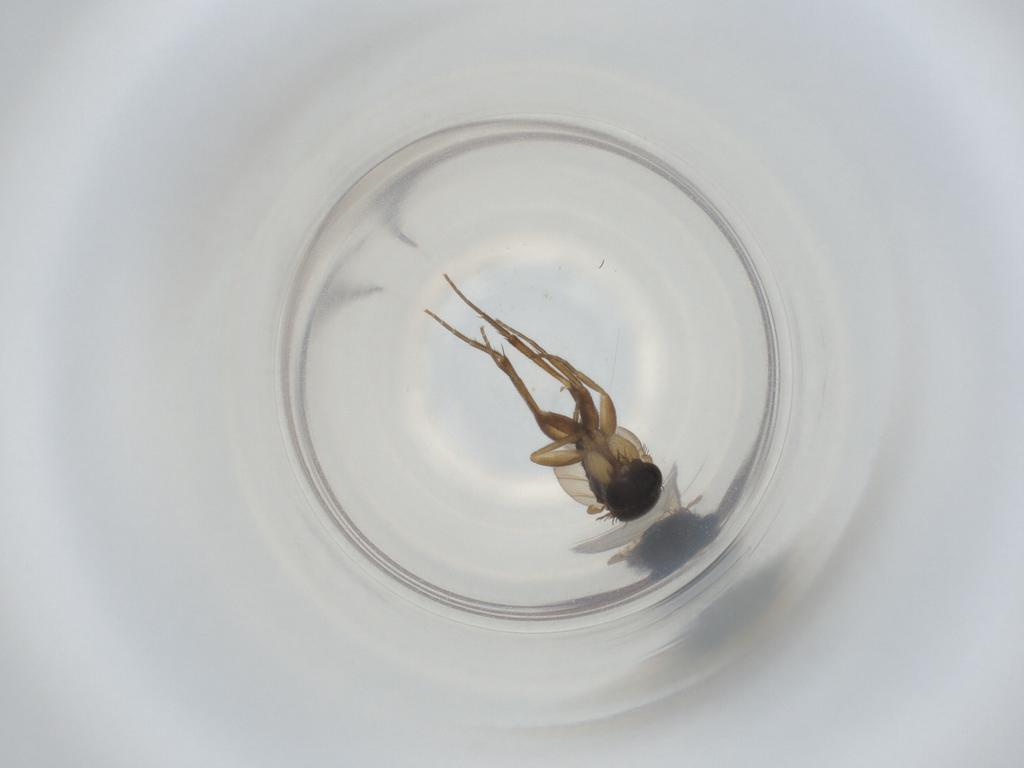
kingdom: Animalia
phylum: Arthropoda
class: Insecta
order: Diptera
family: Phoridae
